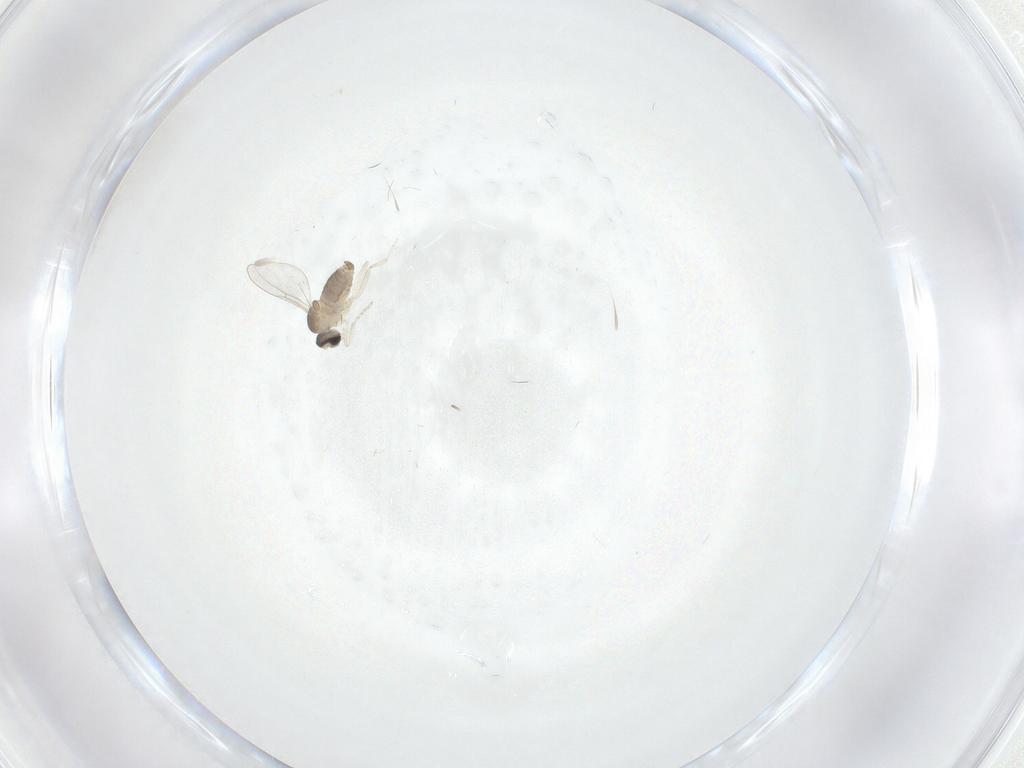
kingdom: Animalia
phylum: Arthropoda
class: Insecta
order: Diptera
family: Cecidomyiidae
